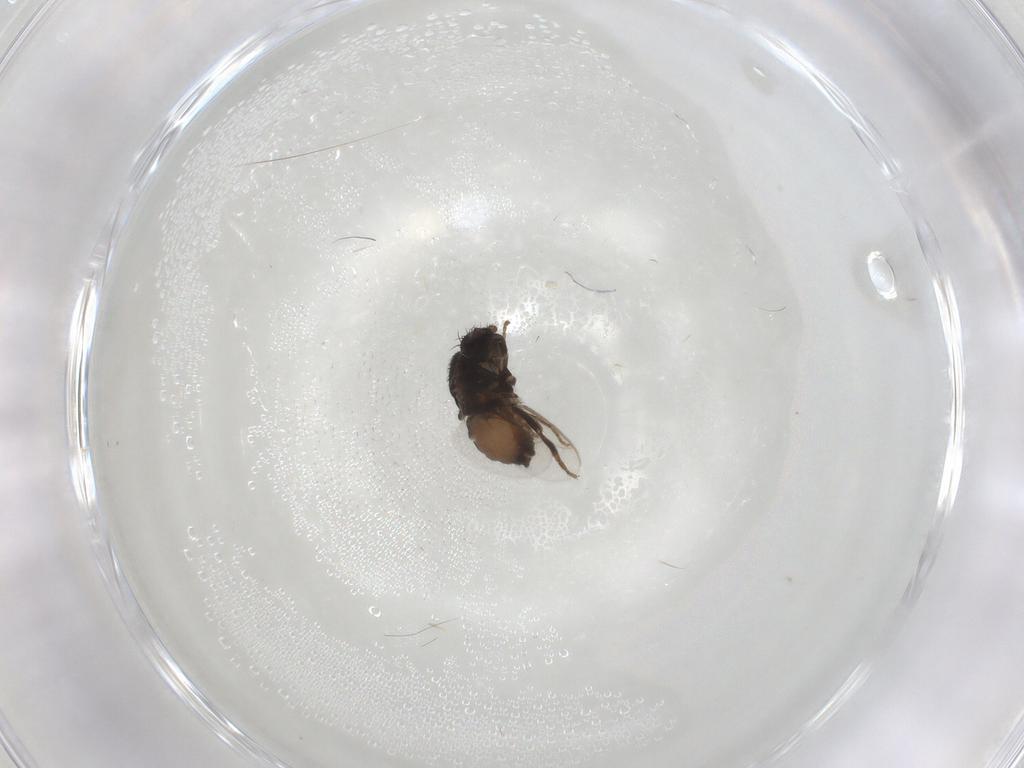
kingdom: Animalia
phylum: Arthropoda
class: Insecta
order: Diptera
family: Sphaeroceridae
